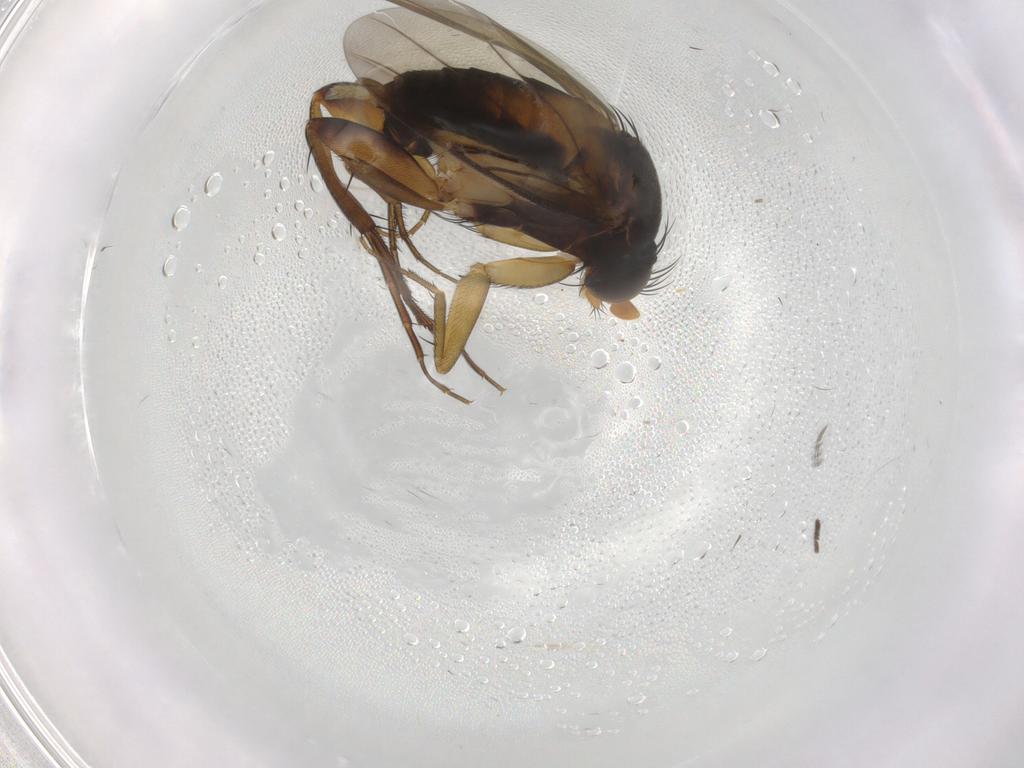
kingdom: Animalia
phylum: Arthropoda
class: Insecta
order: Diptera
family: Phoridae
